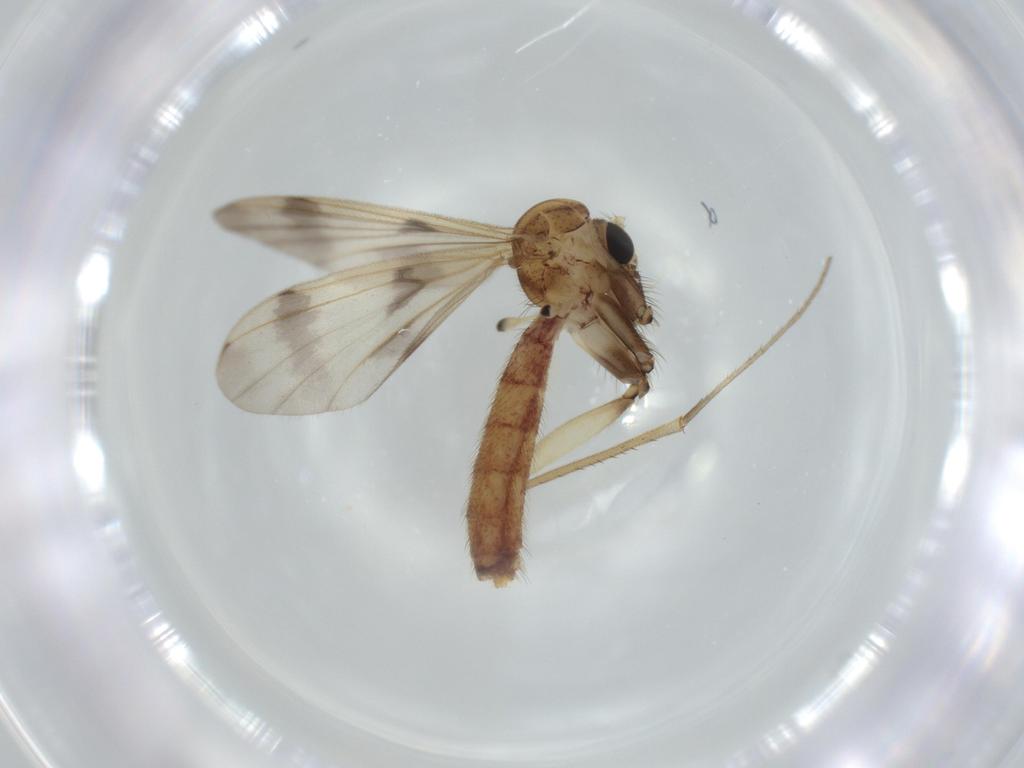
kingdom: Animalia
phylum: Arthropoda
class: Insecta
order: Diptera
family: Mycetophilidae
